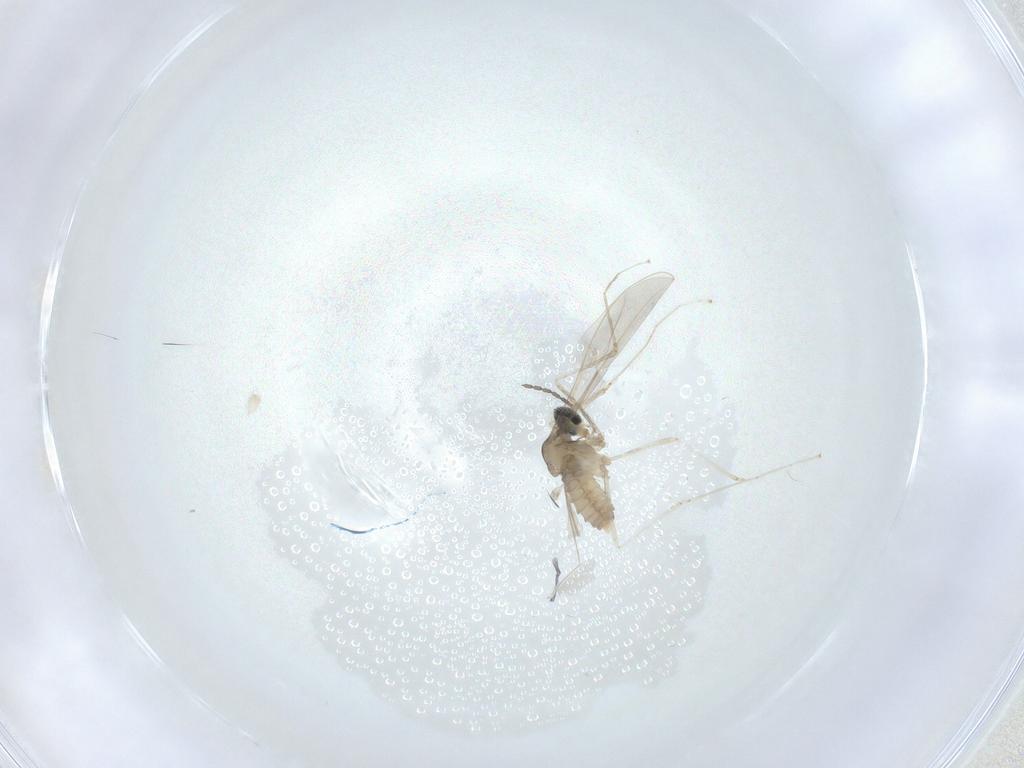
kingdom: Animalia
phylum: Arthropoda
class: Insecta
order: Diptera
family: Cecidomyiidae
